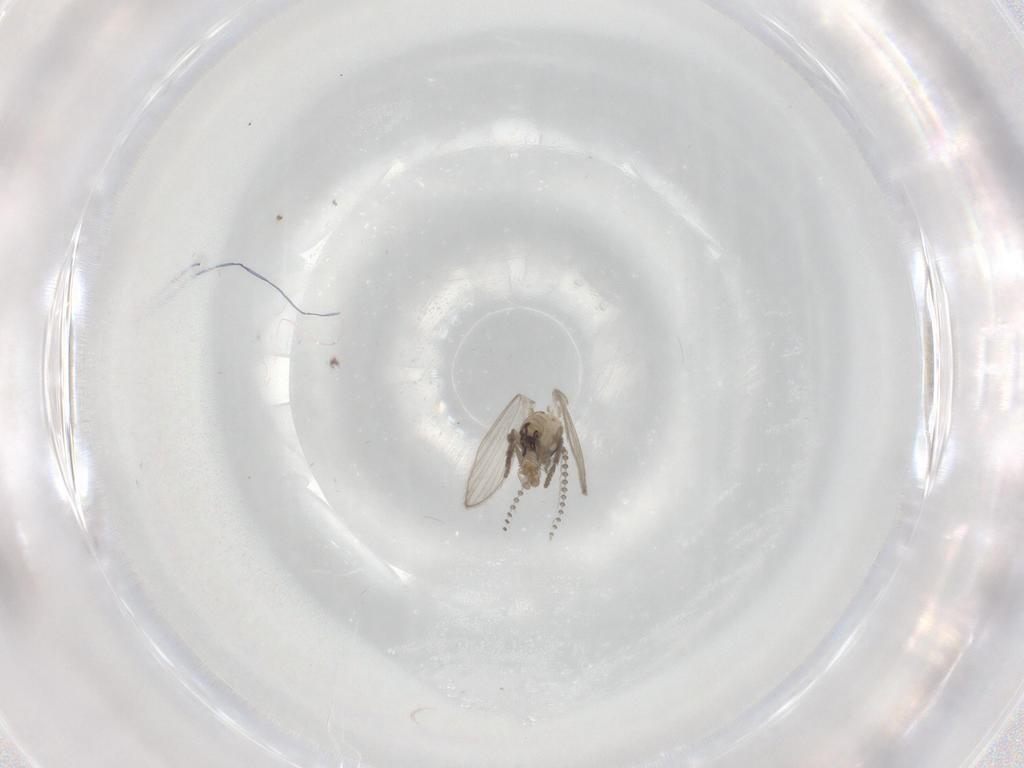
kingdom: Animalia
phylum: Arthropoda
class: Insecta
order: Diptera
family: Psychodidae
